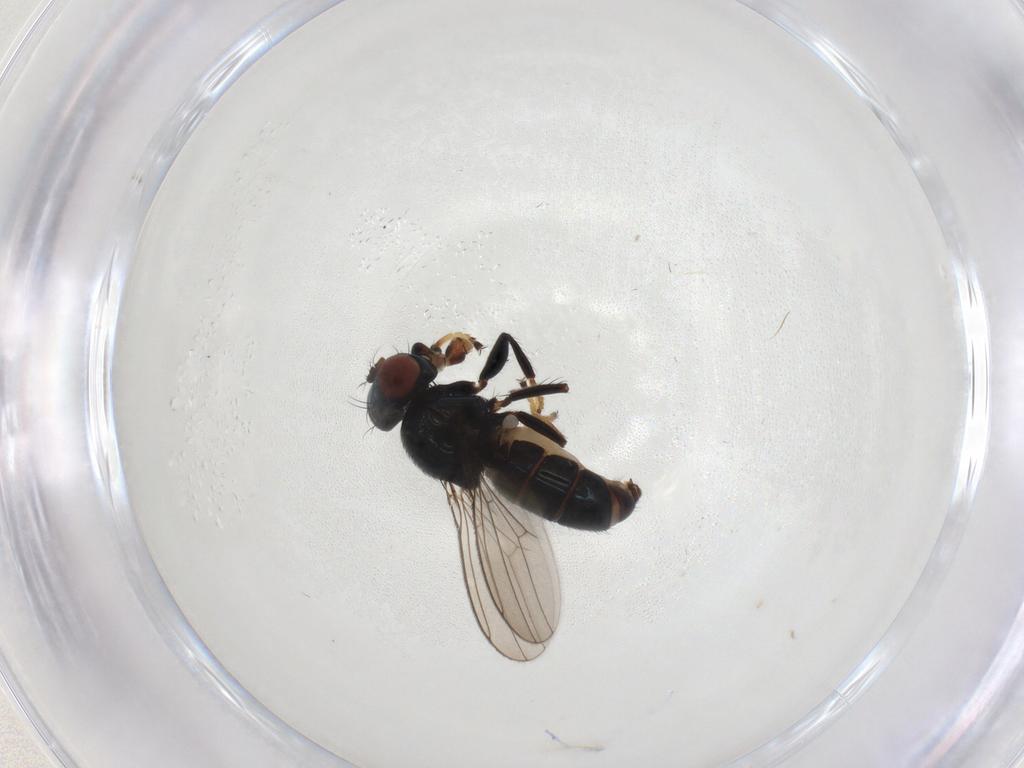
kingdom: Animalia
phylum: Arthropoda
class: Insecta
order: Diptera
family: Ephydridae
